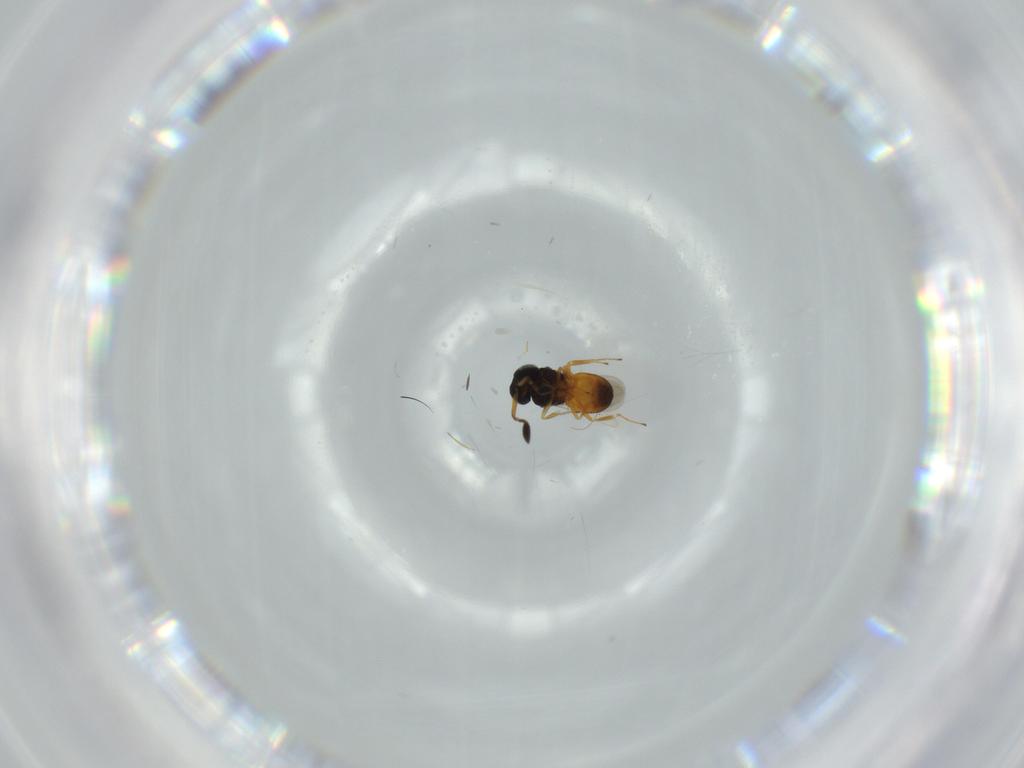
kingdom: Animalia
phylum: Arthropoda
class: Insecta
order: Hymenoptera
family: Scelionidae
